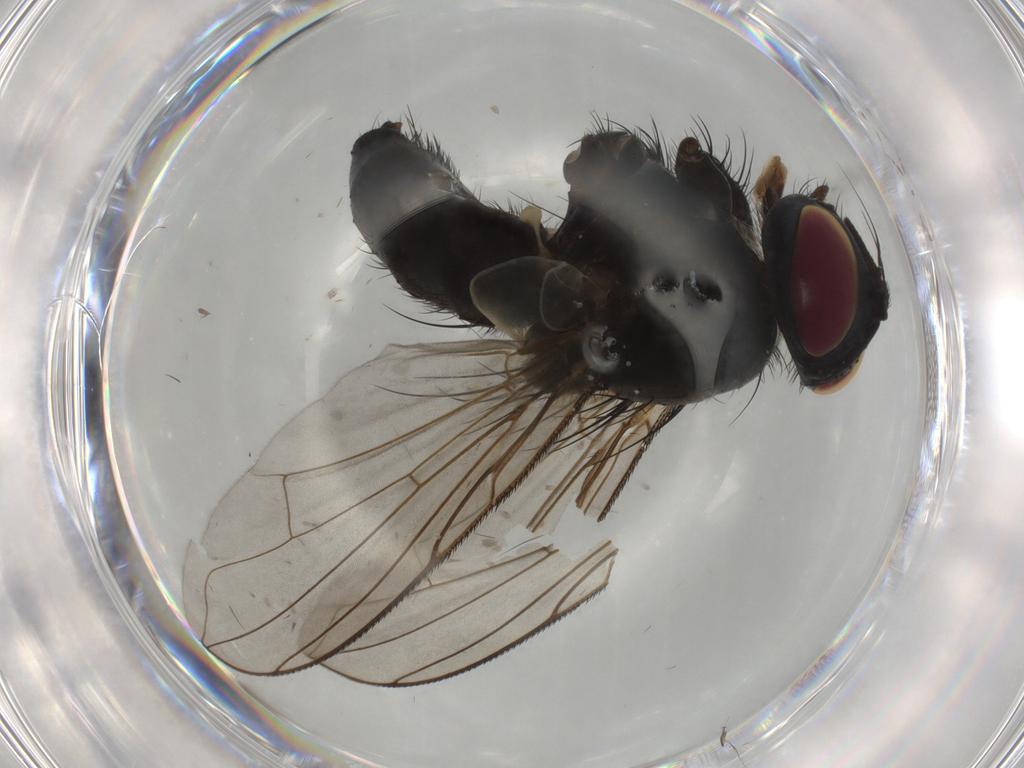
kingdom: Animalia
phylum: Arthropoda
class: Insecta
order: Diptera
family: Tachinidae
